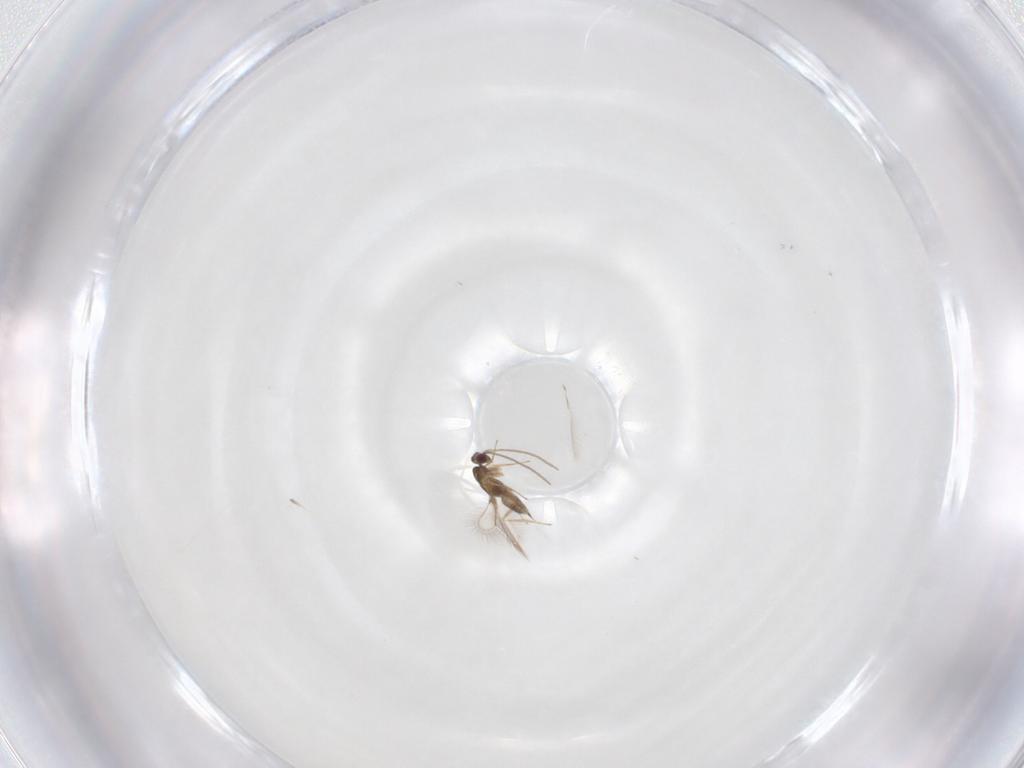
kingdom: Animalia
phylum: Arthropoda
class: Insecta
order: Hymenoptera
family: Mymaridae
